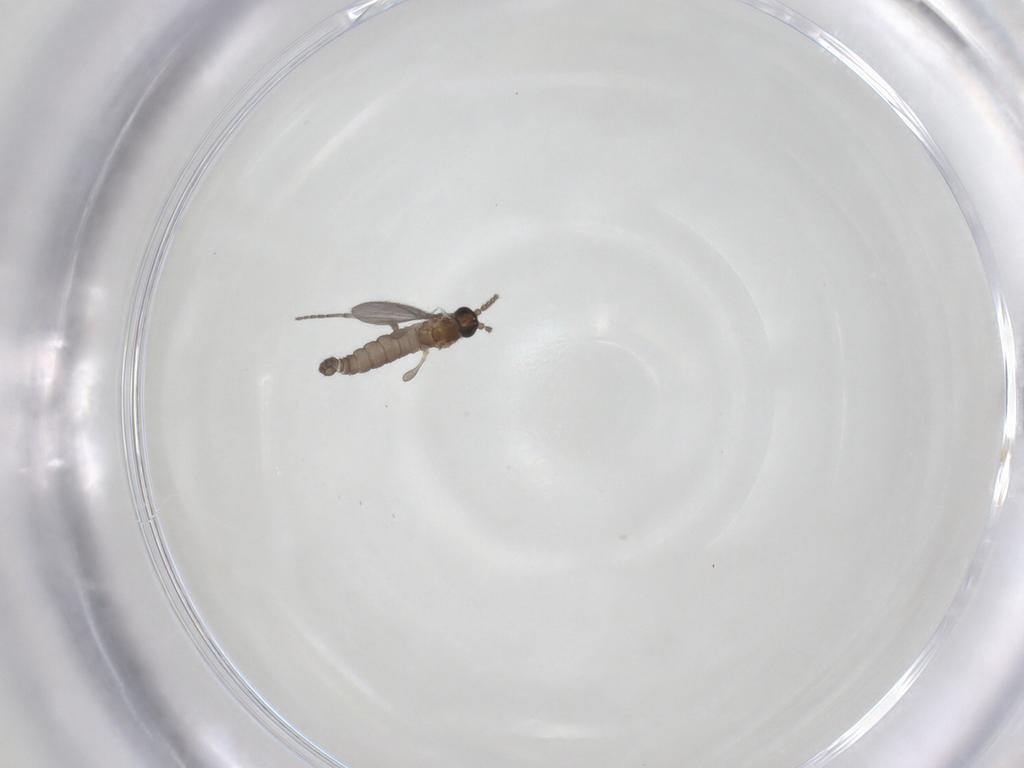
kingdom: Animalia
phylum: Arthropoda
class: Insecta
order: Diptera
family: Sciaridae
